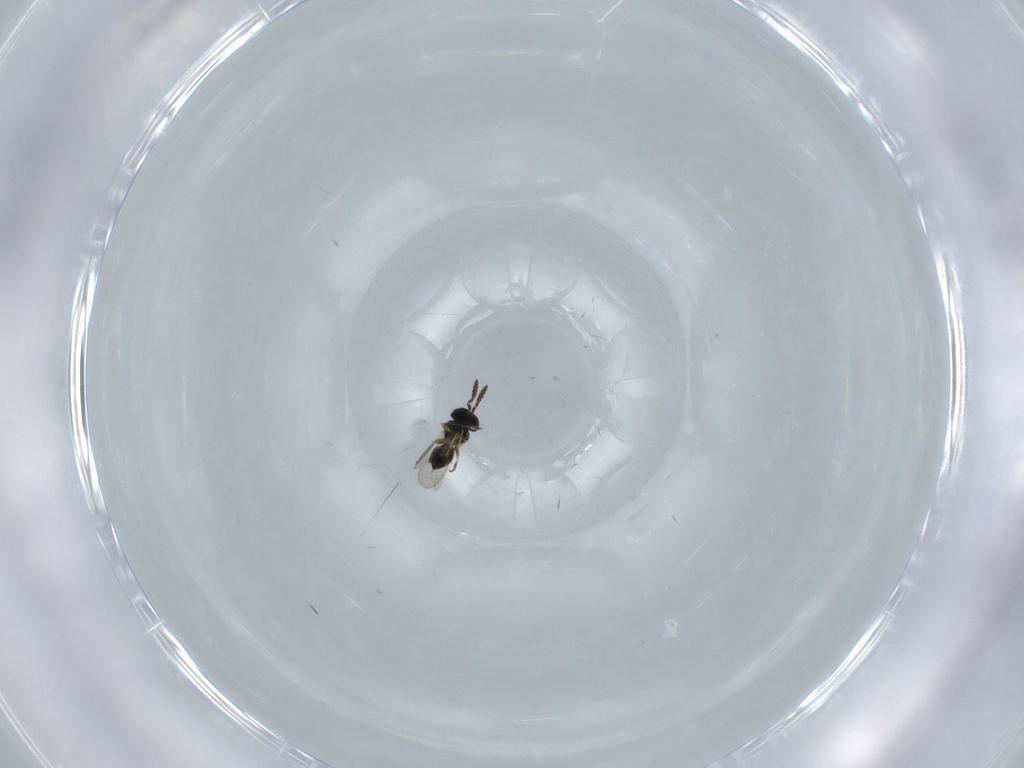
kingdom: Animalia
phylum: Arthropoda
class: Insecta
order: Hymenoptera
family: Scelionidae
